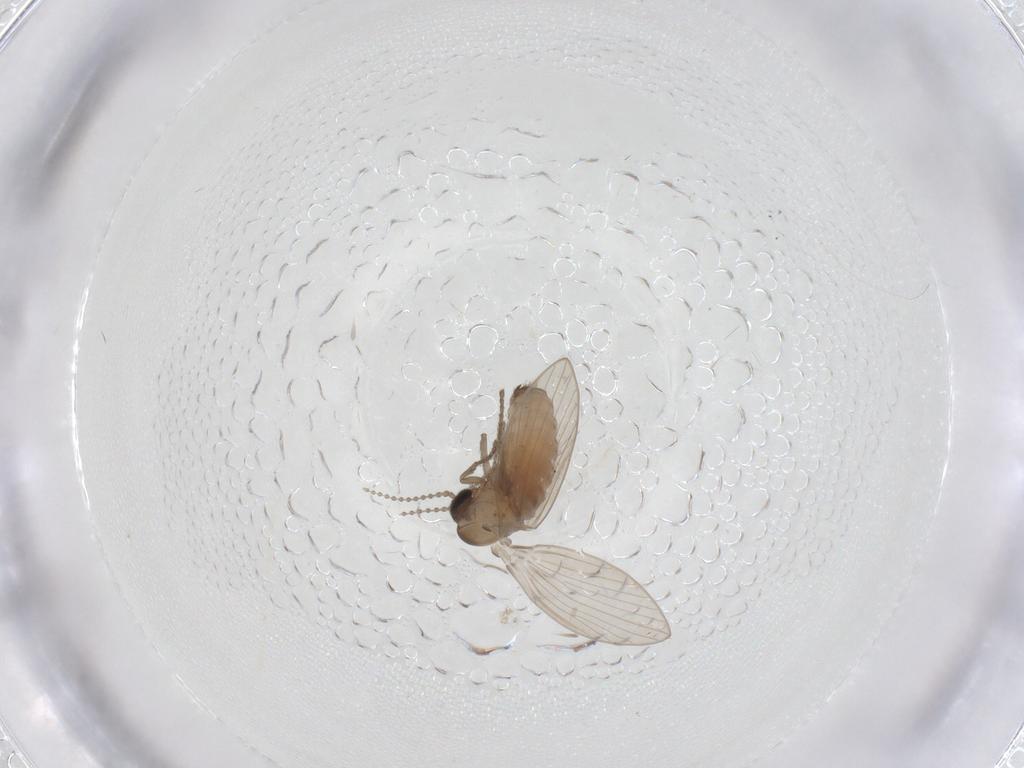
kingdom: Animalia
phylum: Arthropoda
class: Insecta
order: Diptera
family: Psychodidae
